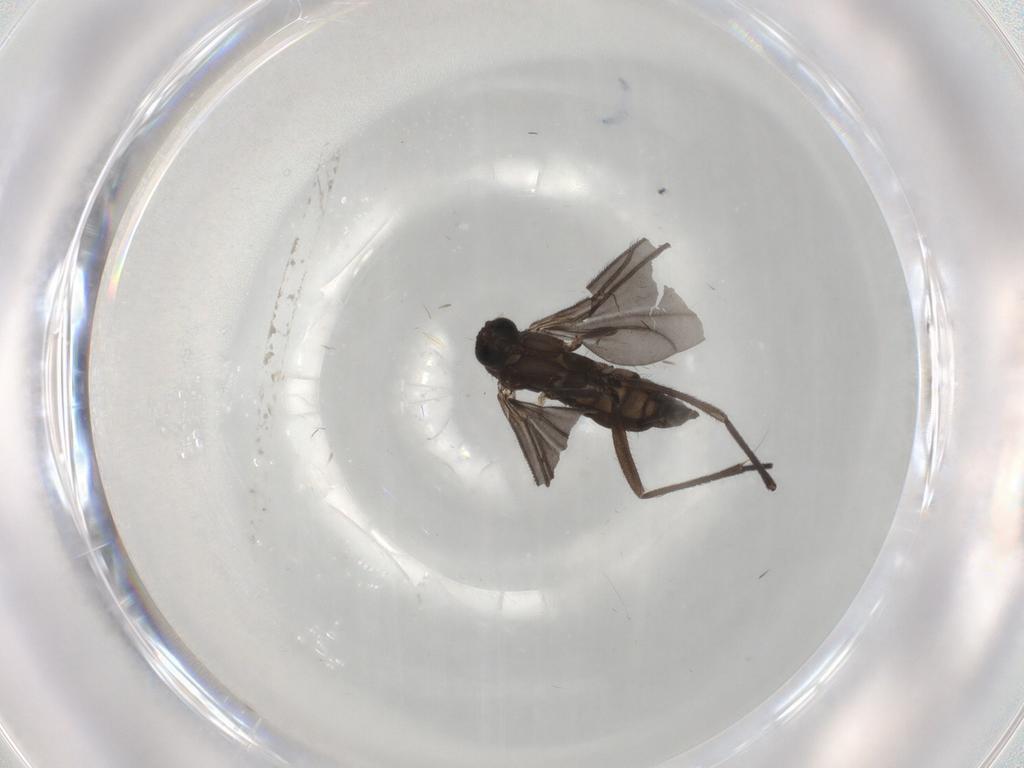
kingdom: Animalia
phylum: Arthropoda
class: Insecta
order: Diptera
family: Sciaridae
